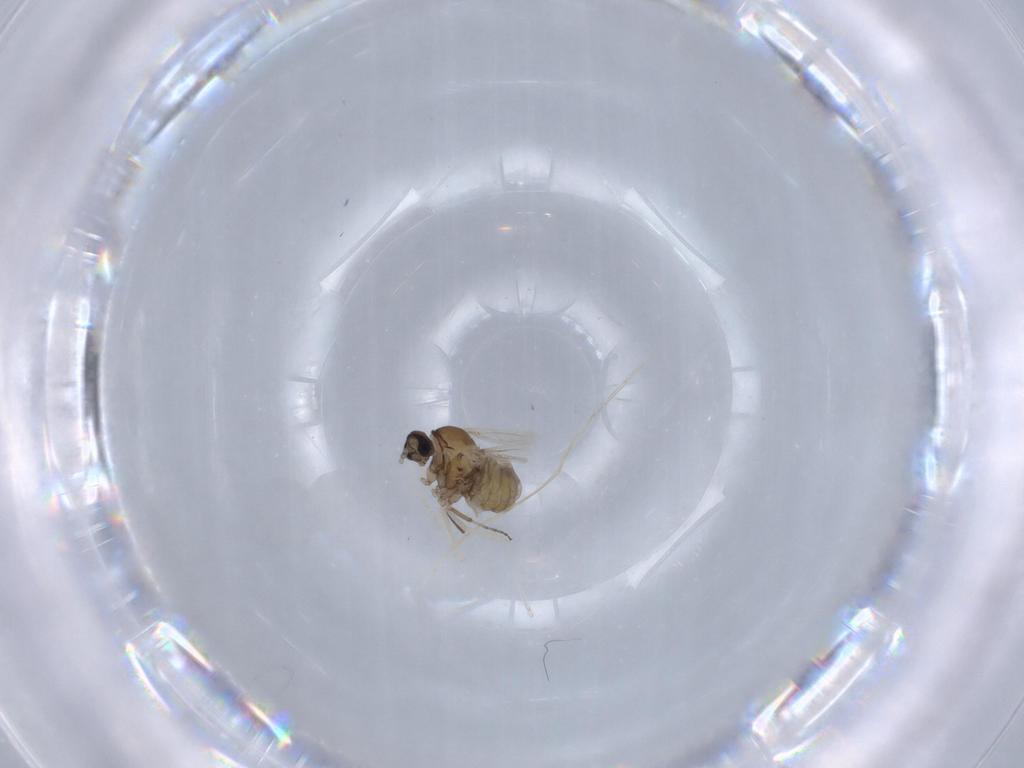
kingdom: Animalia
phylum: Arthropoda
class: Insecta
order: Diptera
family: Cecidomyiidae
